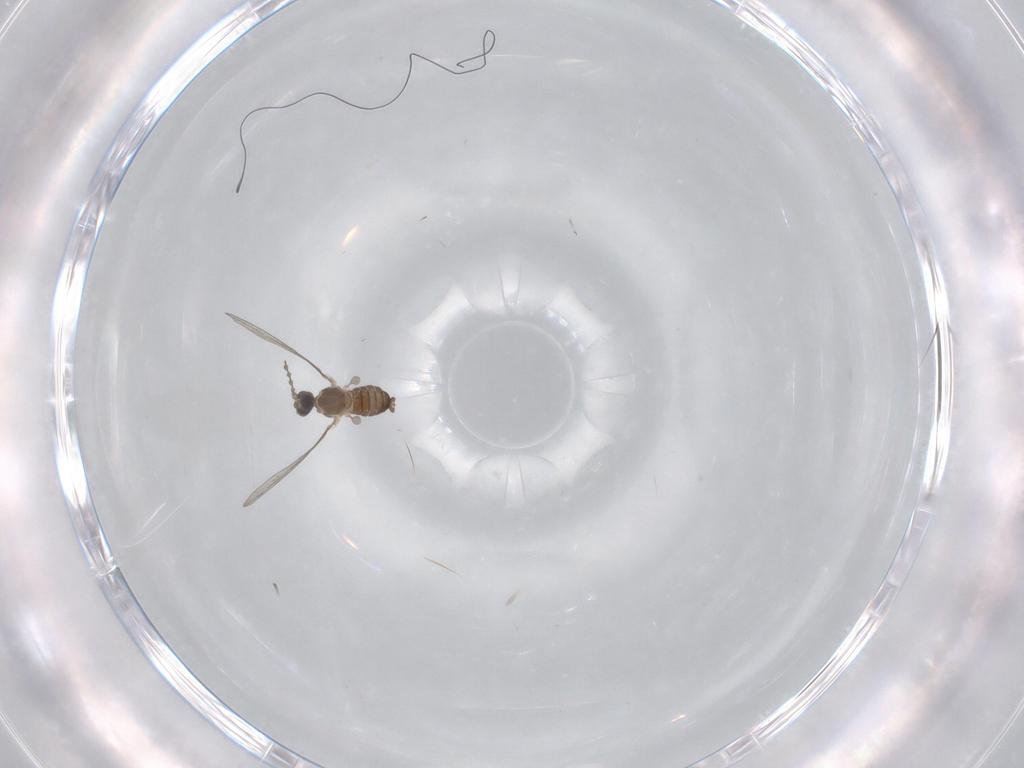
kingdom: Animalia
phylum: Arthropoda
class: Insecta
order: Diptera
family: Cecidomyiidae
